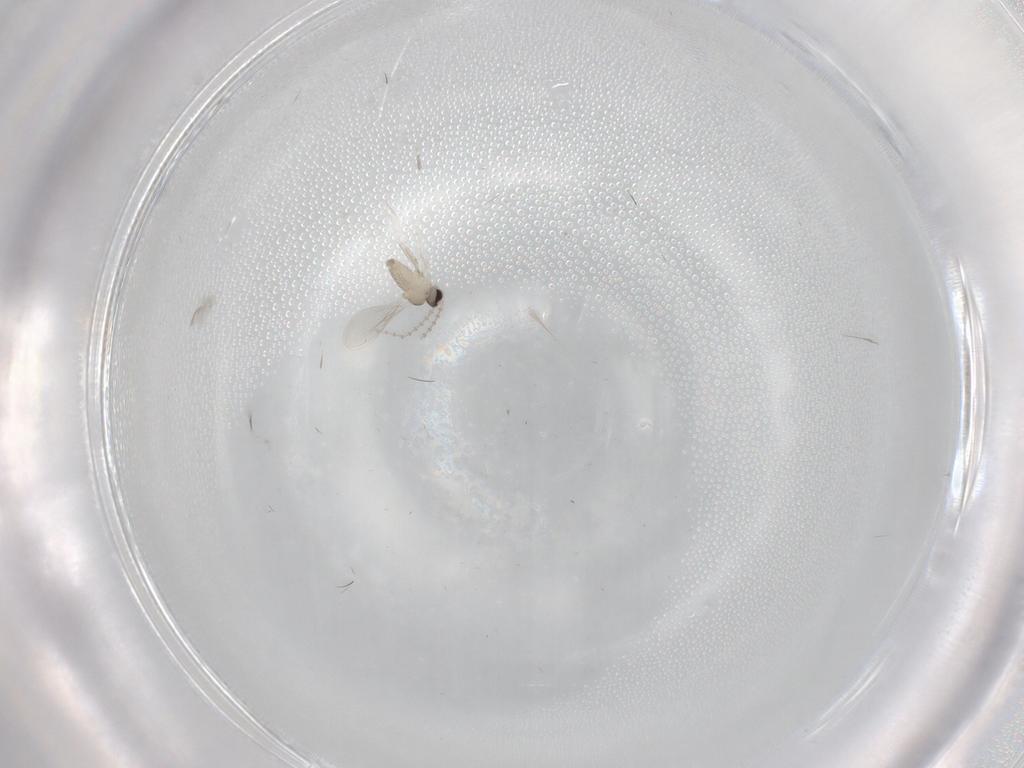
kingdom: Animalia
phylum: Arthropoda
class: Insecta
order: Diptera
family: Cecidomyiidae
